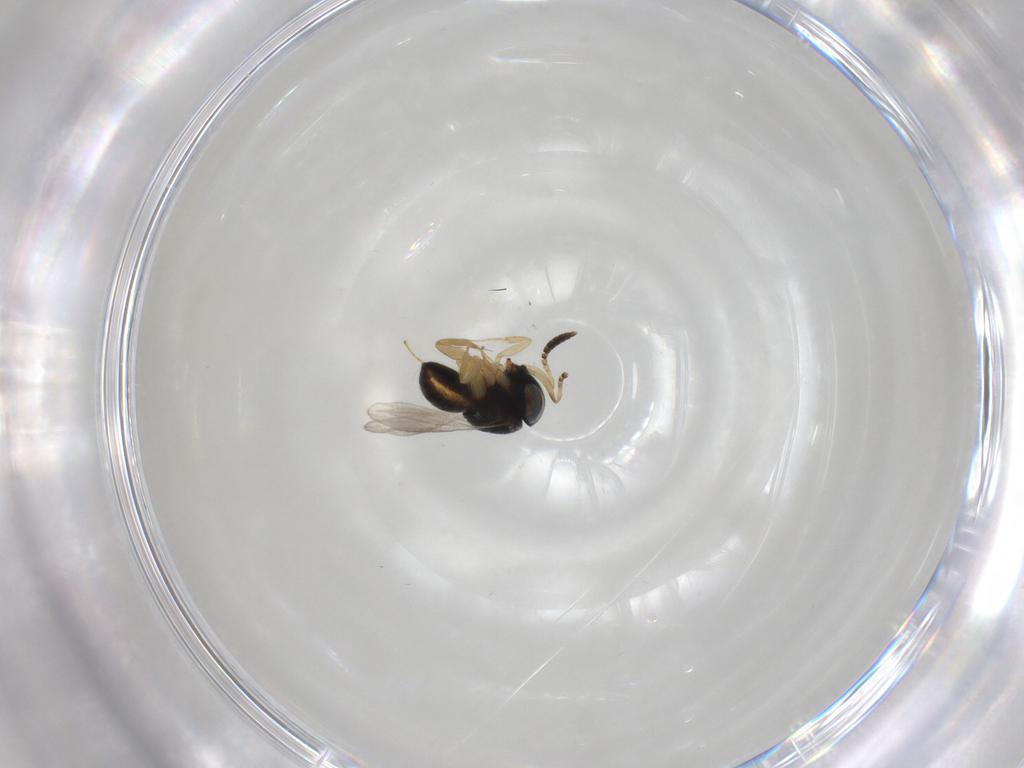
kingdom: Animalia
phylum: Arthropoda
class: Insecta
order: Hymenoptera
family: Scelionidae
